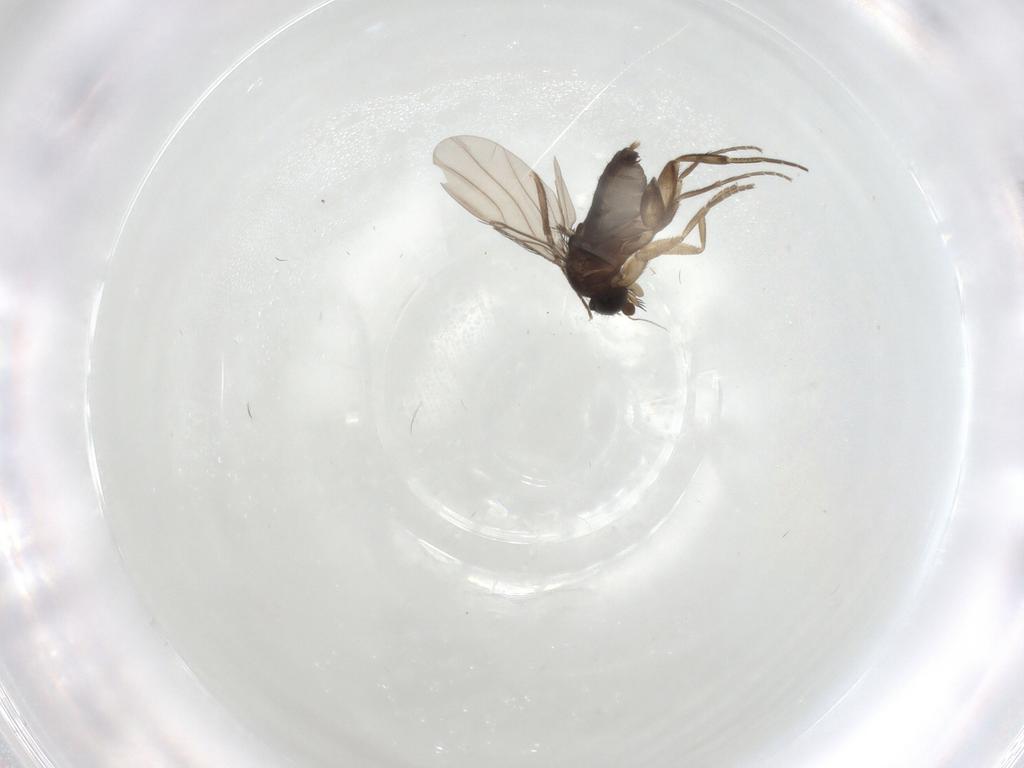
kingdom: Animalia
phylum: Arthropoda
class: Insecta
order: Diptera
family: Phoridae
